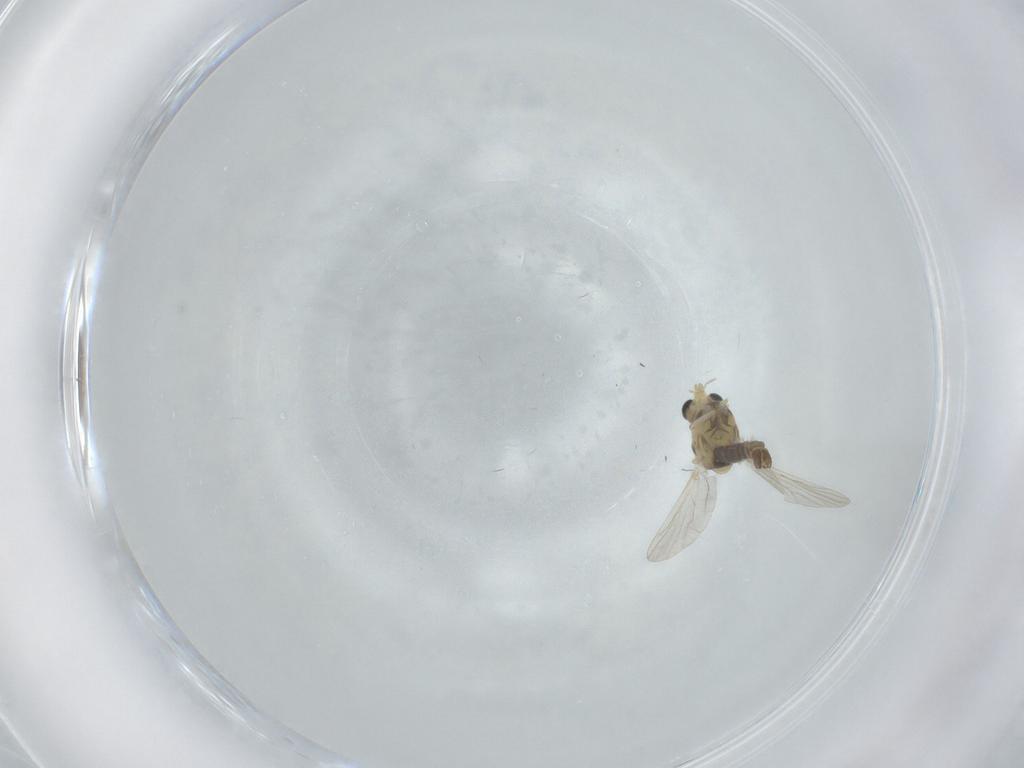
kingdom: Animalia
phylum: Arthropoda
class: Insecta
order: Diptera
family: Chironomidae
